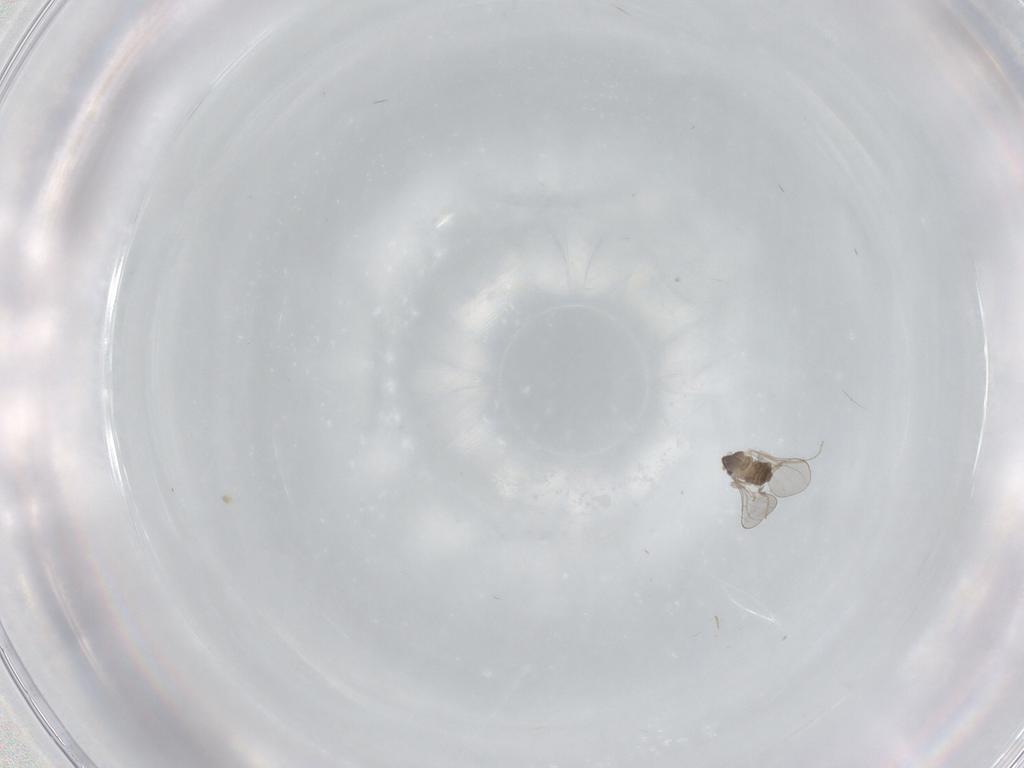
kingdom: Animalia
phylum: Arthropoda
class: Insecta
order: Diptera
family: Cecidomyiidae
